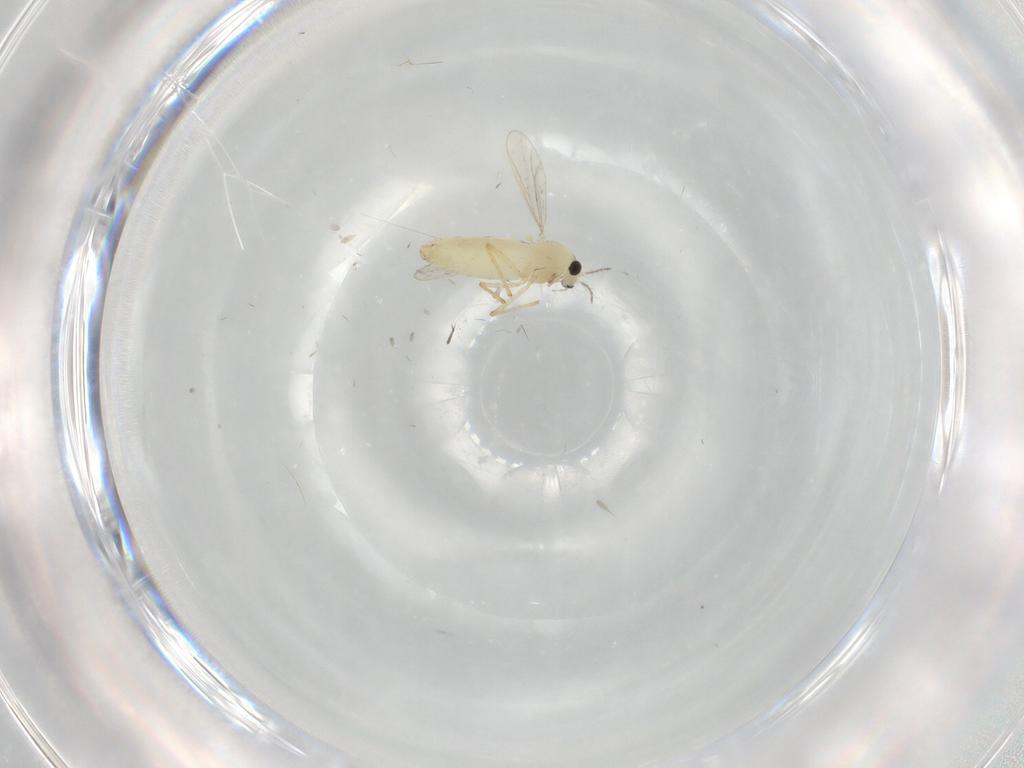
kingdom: Animalia
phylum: Arthropoda
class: Insecta
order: Diptera
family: Chironomidae
